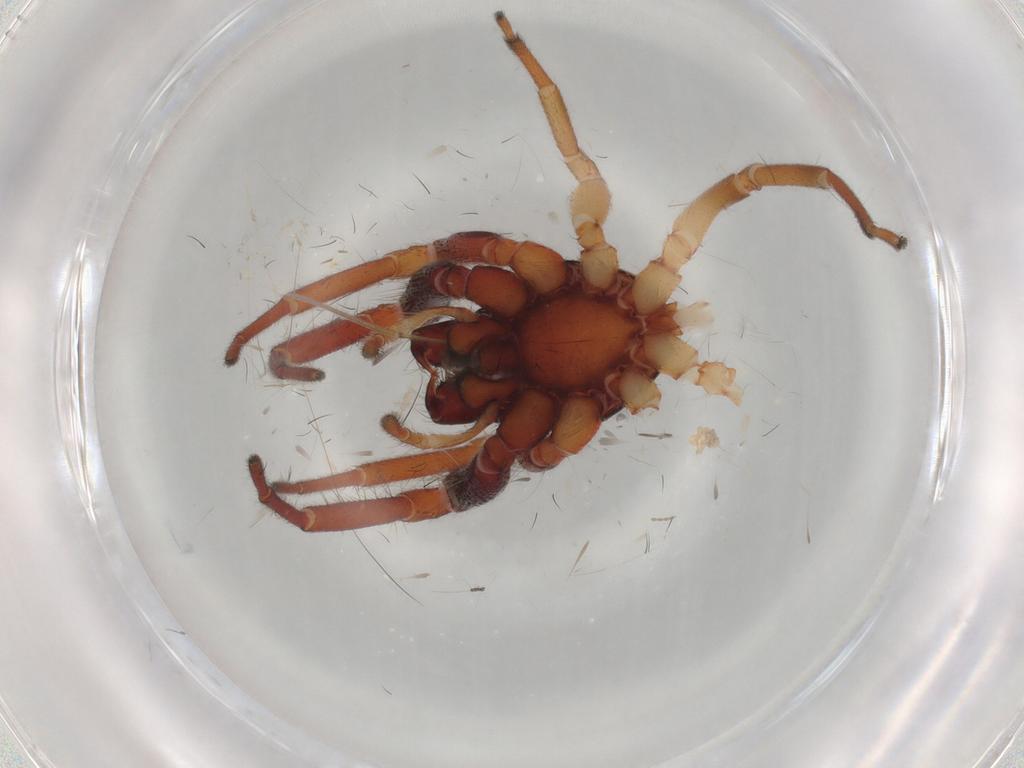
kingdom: Animalia
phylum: Arthropoda
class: Arachnida
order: Araneae
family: Trachelidae
